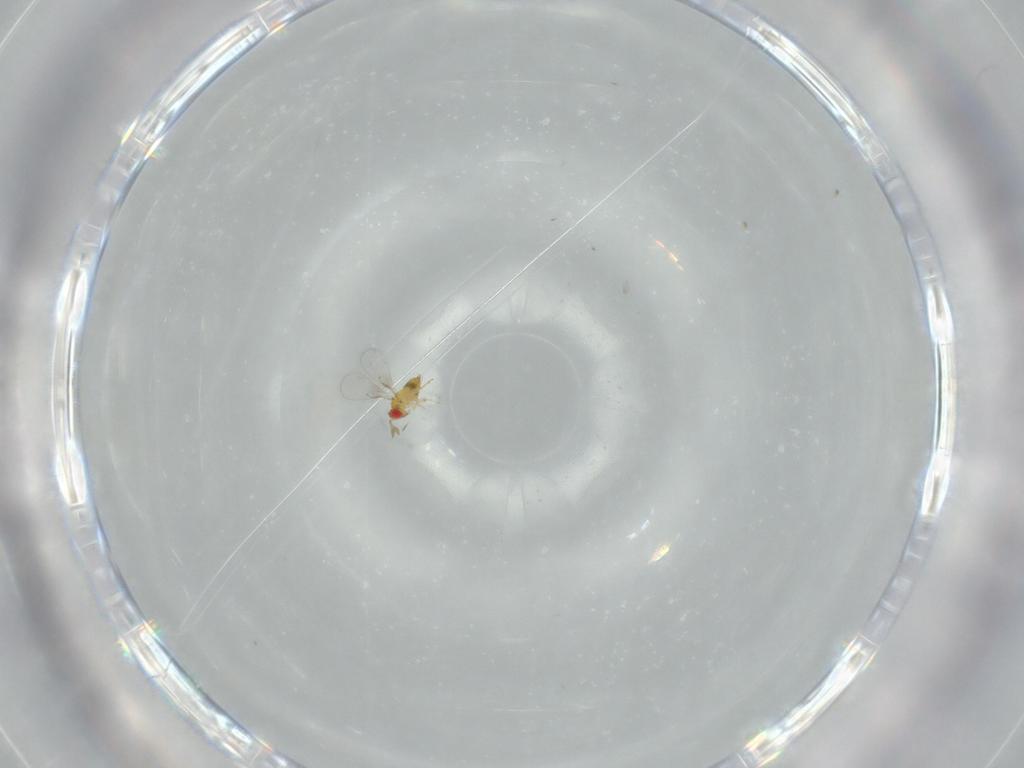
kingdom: Animalia
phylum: Arthropoda
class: Insecta
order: Hymenoptera
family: Trichogrammatidae
